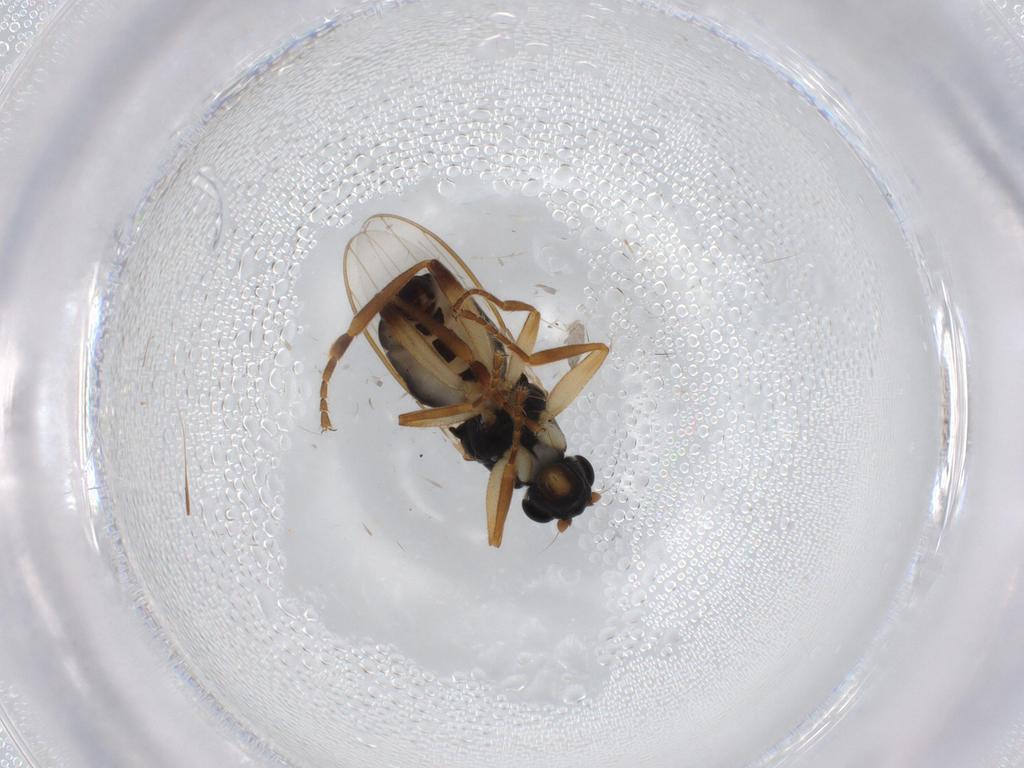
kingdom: Animalia
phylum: Arthropoda
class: Insecta
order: Diptera
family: Sphaeroceridae
